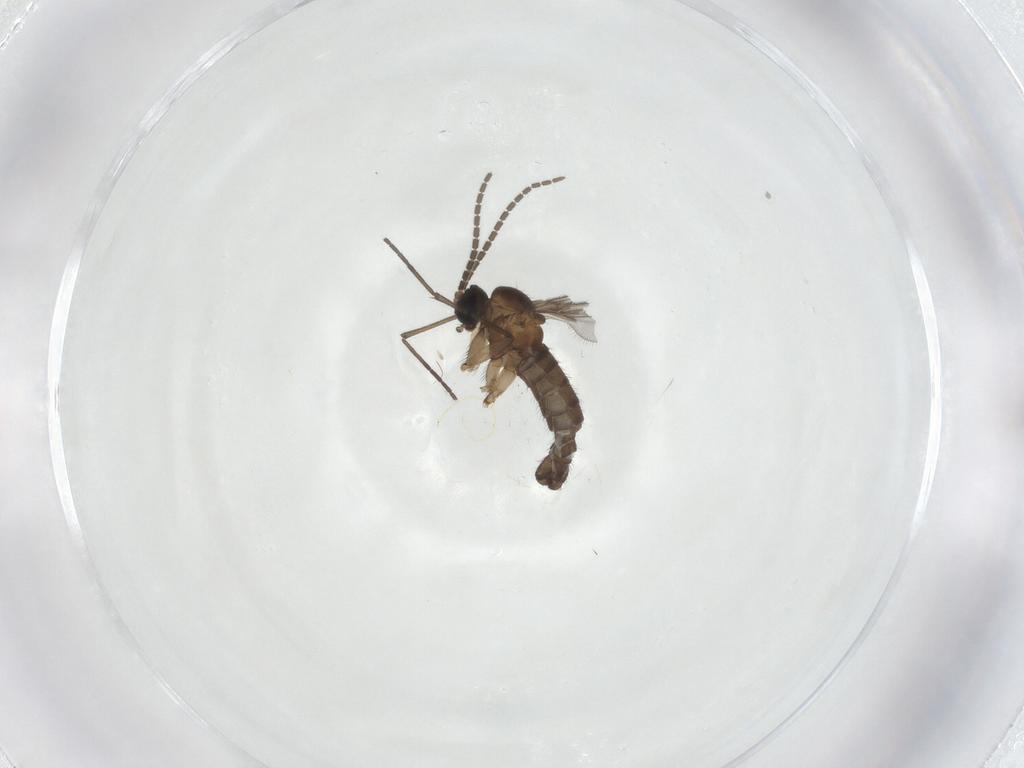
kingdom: Animalia
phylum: Arthropoda
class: Insecta
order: Diptera
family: Sciaridae
